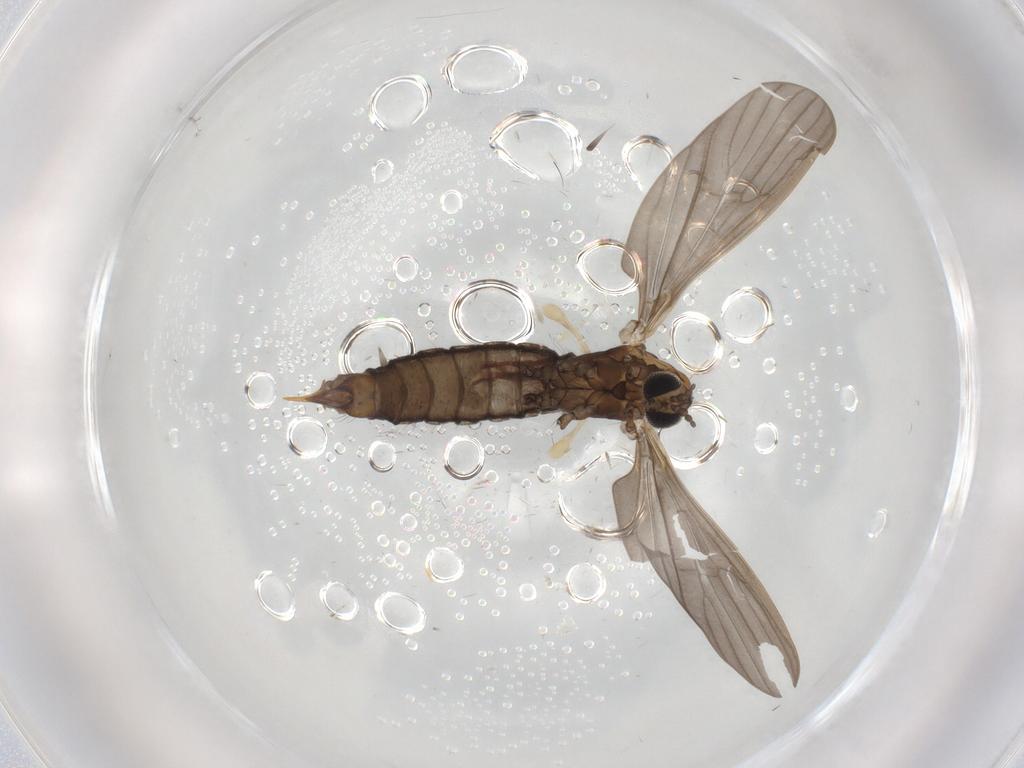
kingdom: Animalia
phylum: Arthropoda
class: Insecta
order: Diptera
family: Limoniidae
